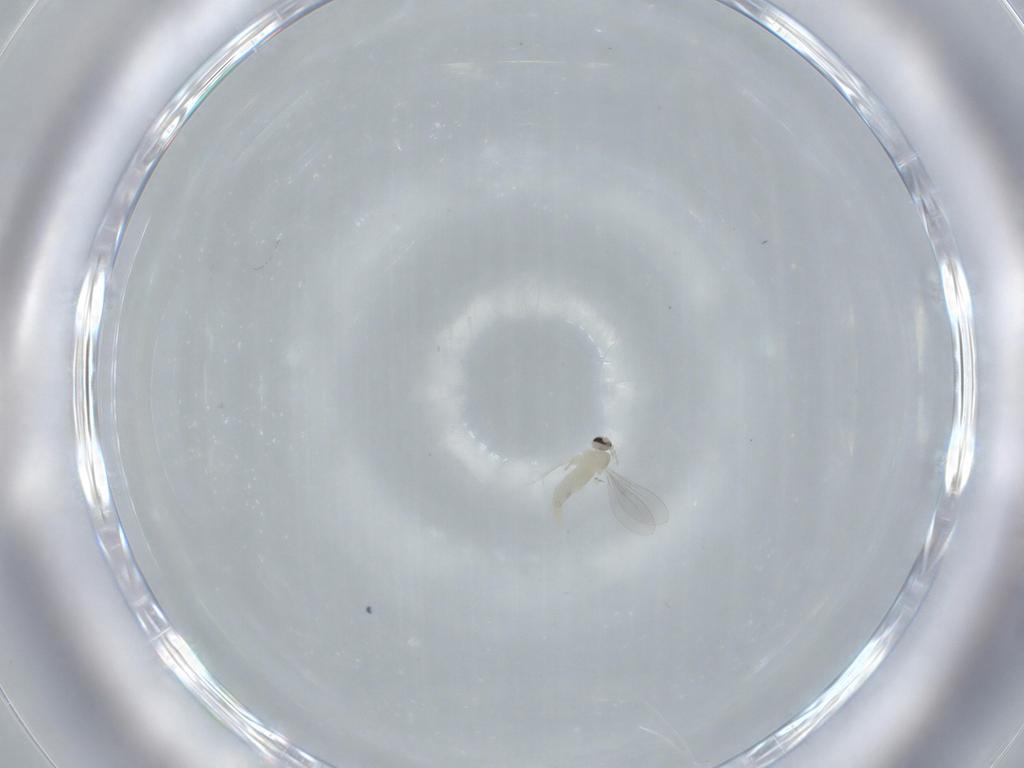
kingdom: Animalia
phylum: Arthropoda
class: Insecta
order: Diptera
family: Cecidomyiidae
